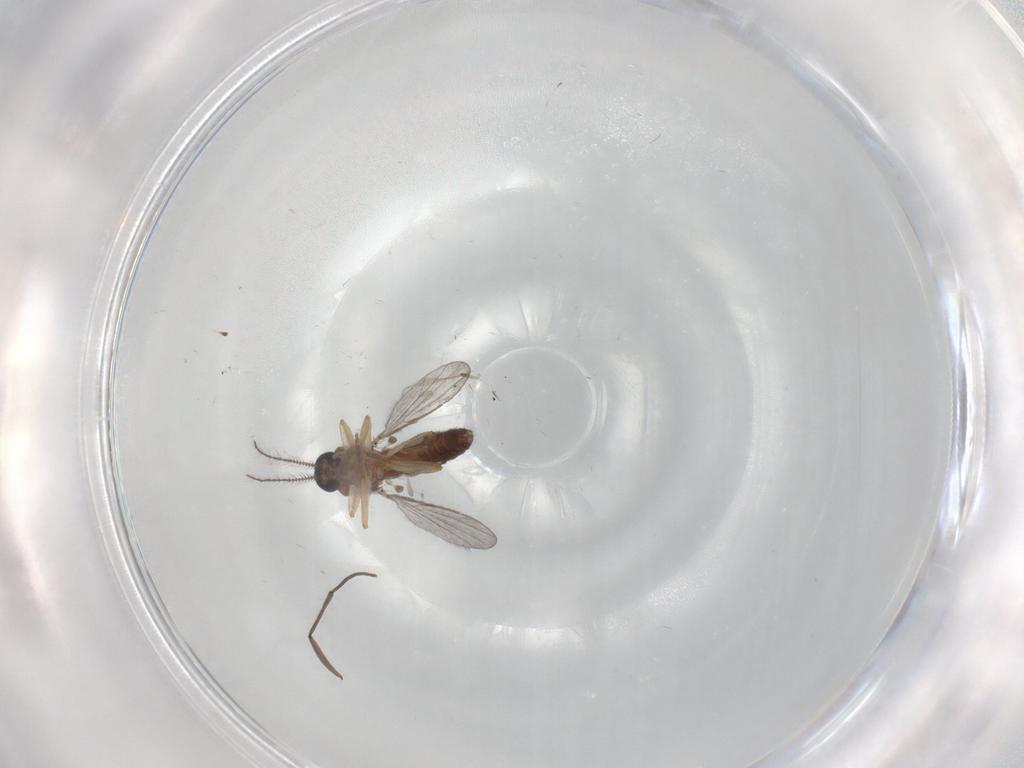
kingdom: Animalia
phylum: Arthropoda
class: Insecta
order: Diptera
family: Ceratopogonidae
